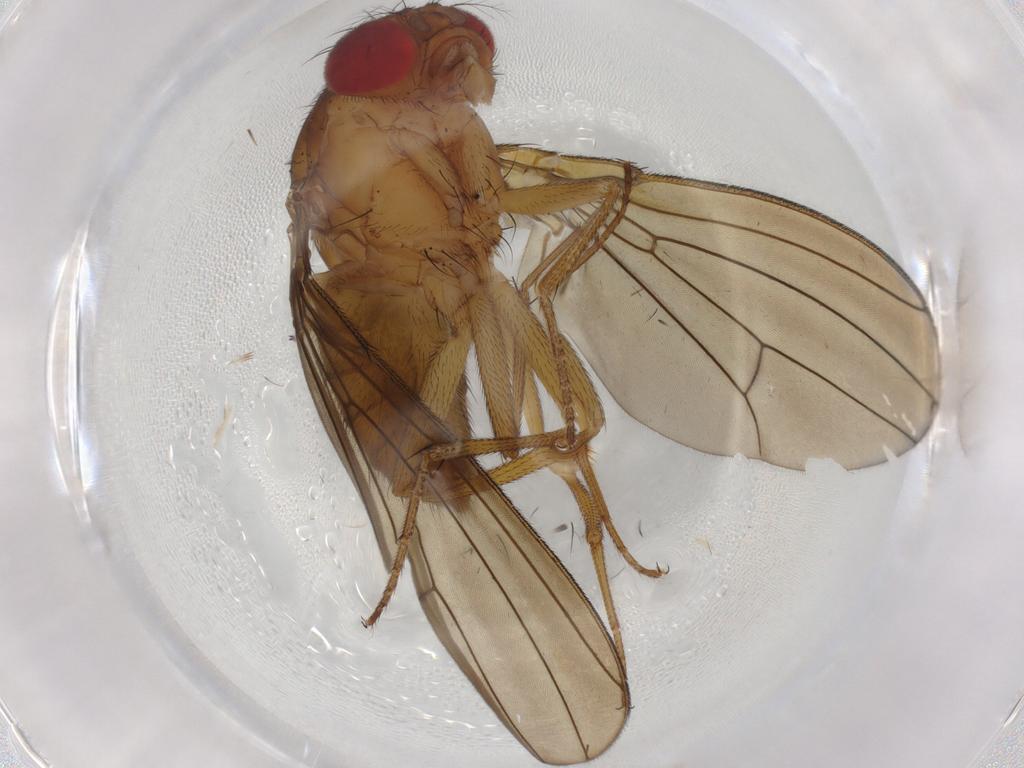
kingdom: Animalia
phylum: Arthropoda
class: Insecta
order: Diptera
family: Drosophilidae
